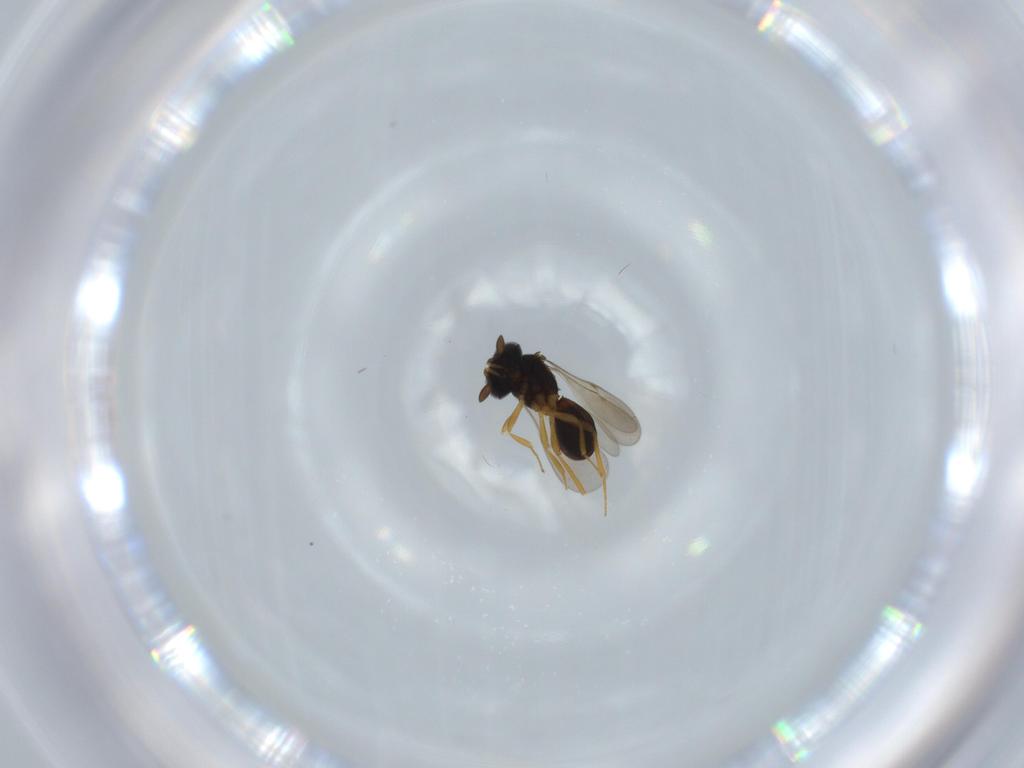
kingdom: Animalia
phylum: Arthropoda
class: Insecta
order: Hymenoptera
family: Scelionidae
